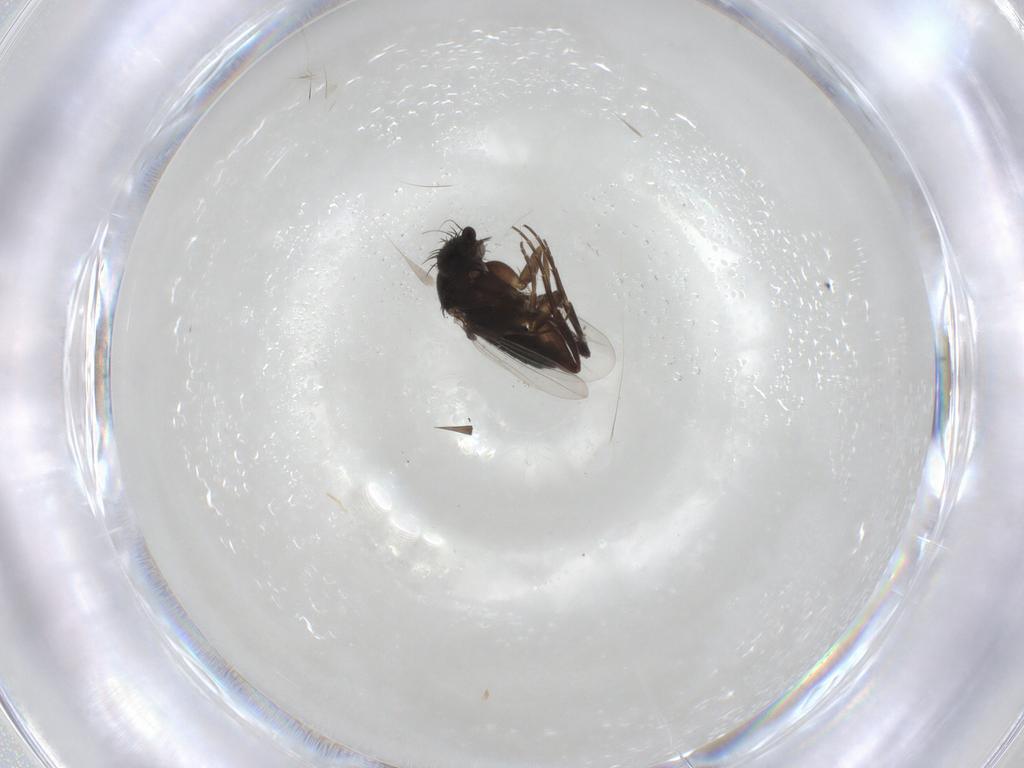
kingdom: Animalia
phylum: Arthropoda
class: Insecta
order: Diptera
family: Phoridae
